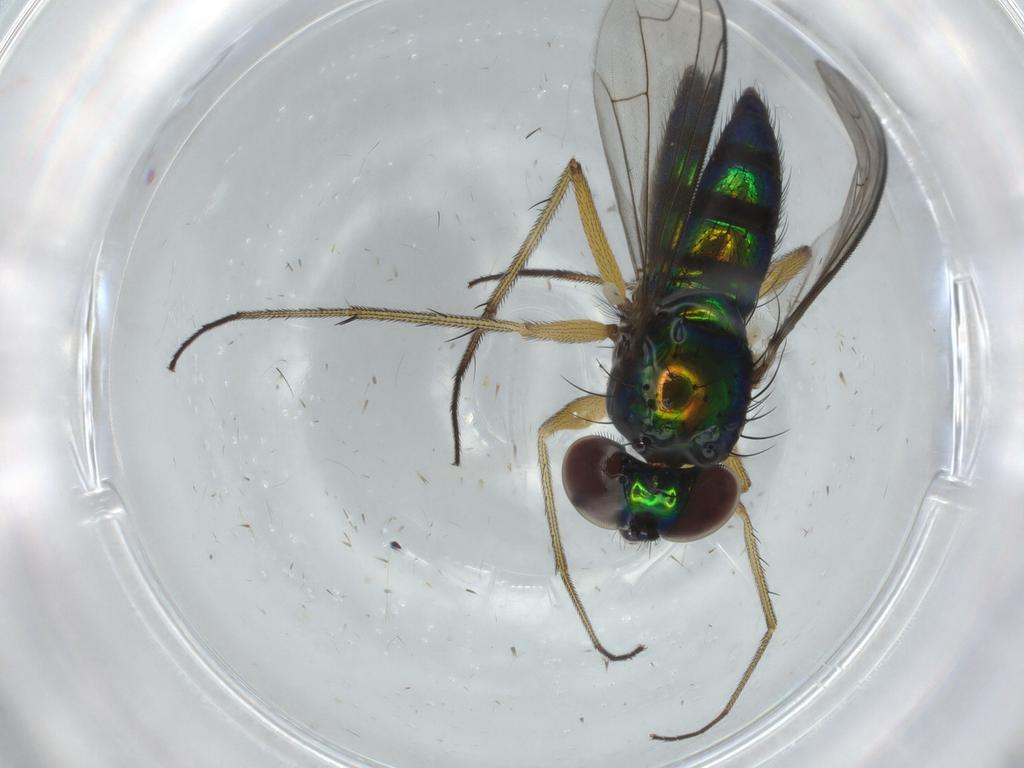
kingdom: Animalia
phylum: Arthropoda
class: Insecta
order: Diptera
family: Dolichopodidae
